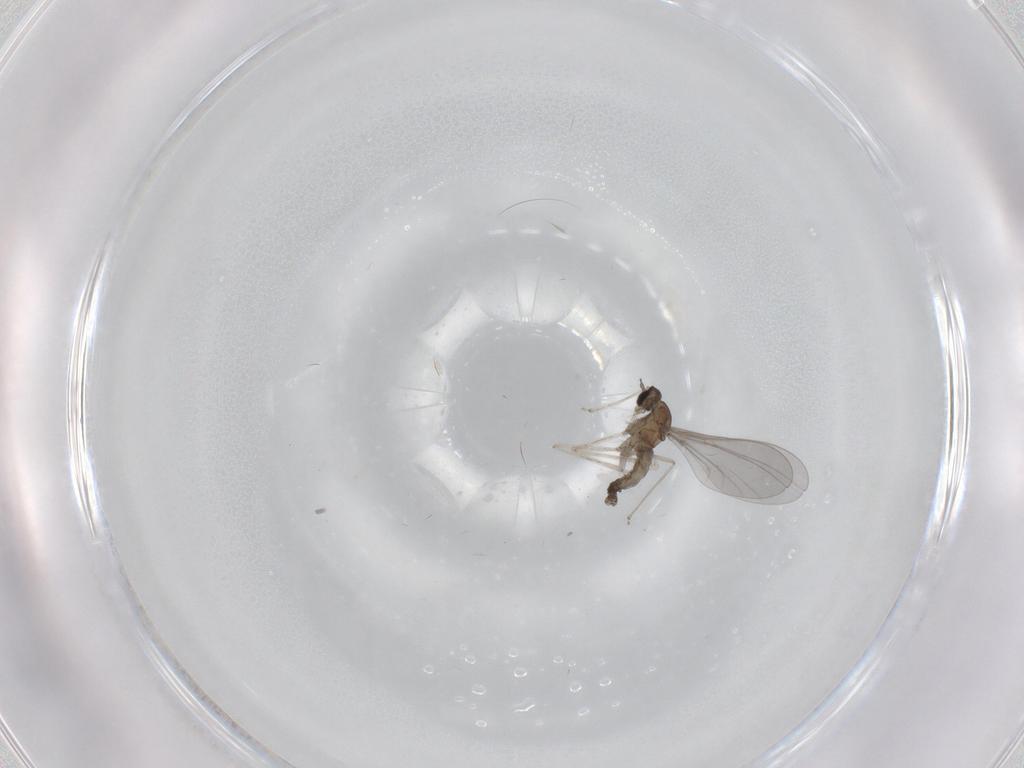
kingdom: Animalia
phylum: Arthropoda
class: Insecta
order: Diptera
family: Cecidomyiidae
